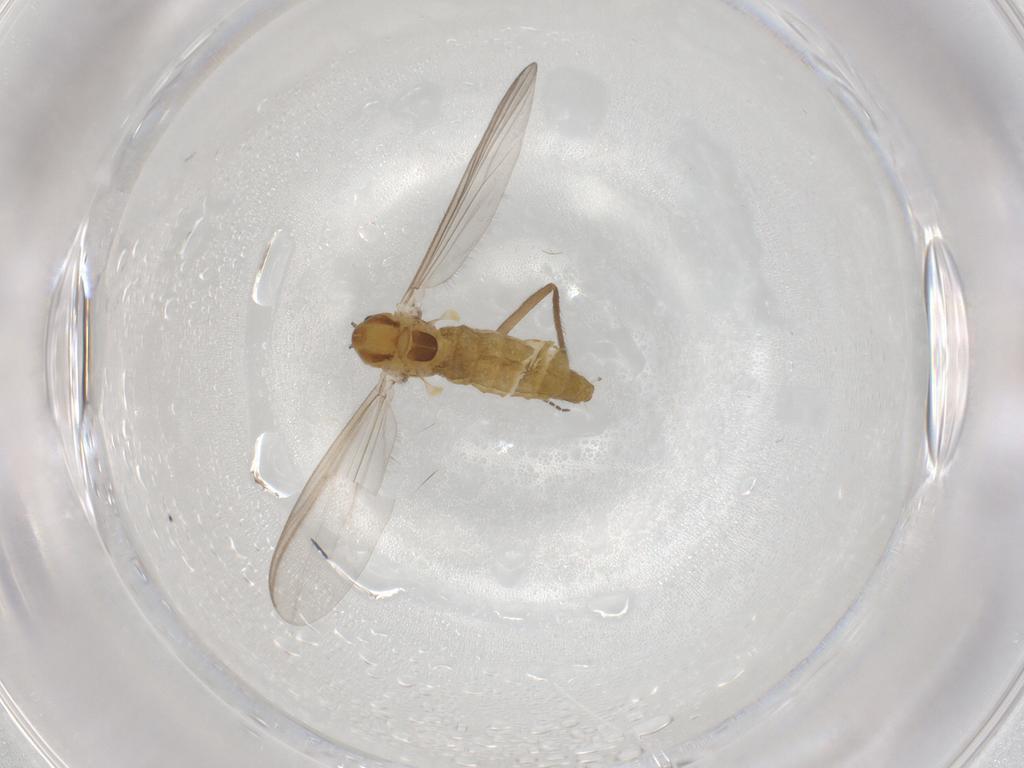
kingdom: Animalia
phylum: Arthropoda
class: Insecta
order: Diptera
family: Chironomidae
